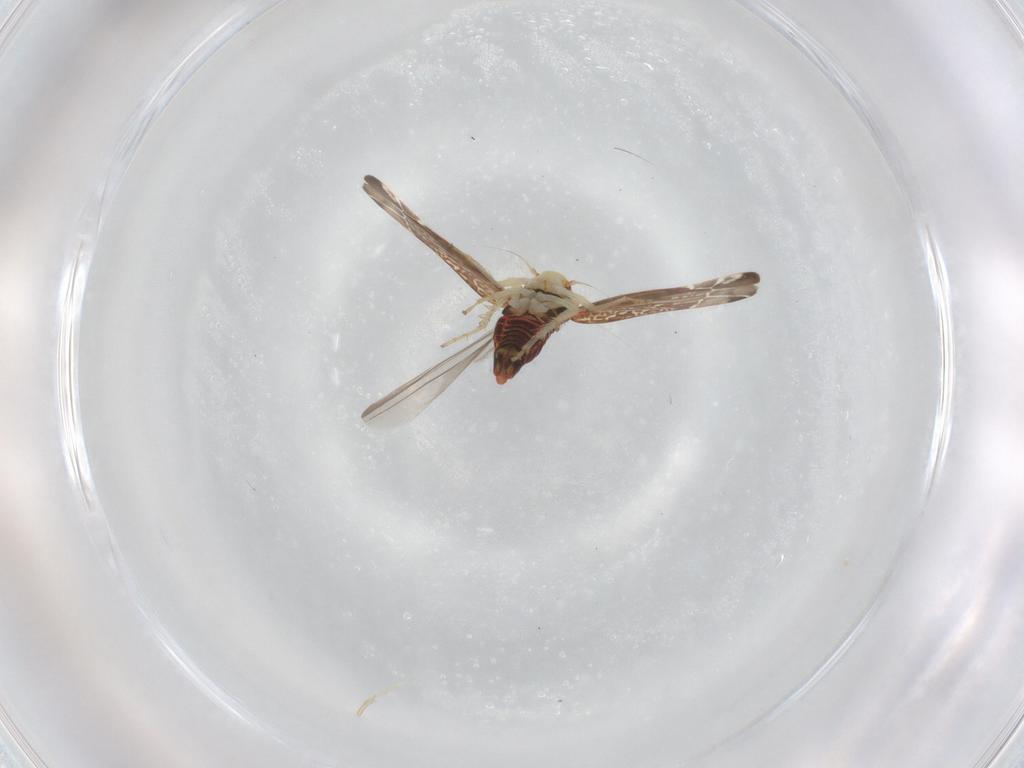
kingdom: Animalia
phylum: Arthropoda
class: Insecta
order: Hemiptera
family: Cicadellidae
